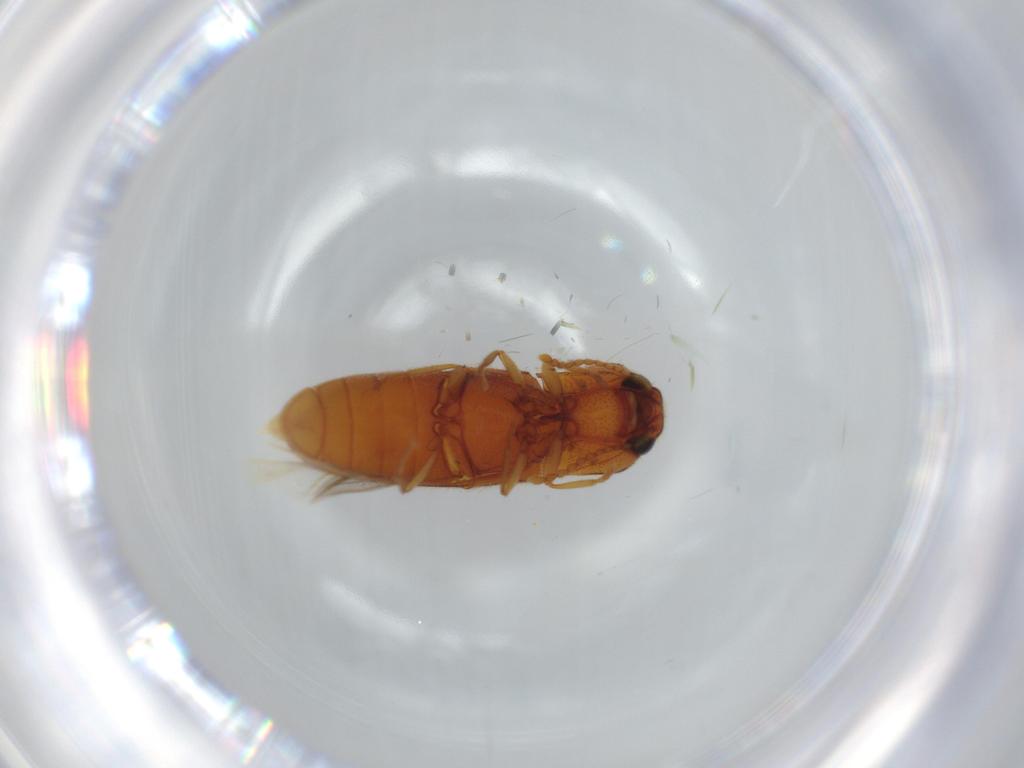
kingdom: Animalia
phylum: Arthropoda
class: Insecta
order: Coleoptera
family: Elateridae
